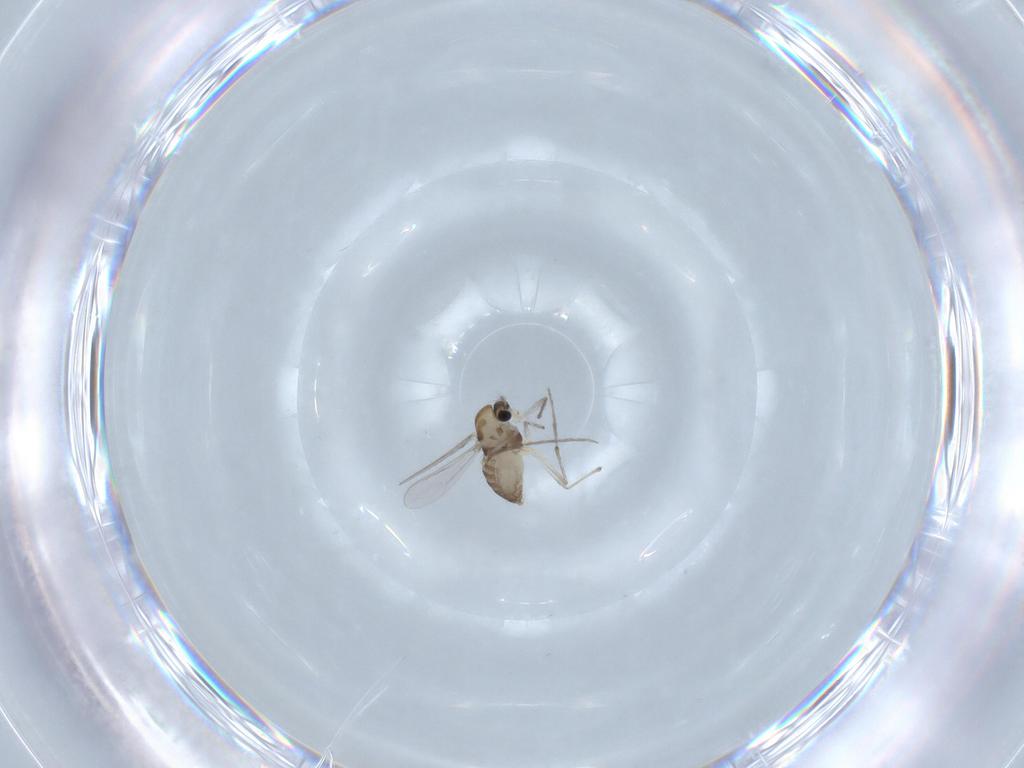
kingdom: Animalia
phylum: Arthropoda
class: Insecta
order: Diptera
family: Chironomidae
